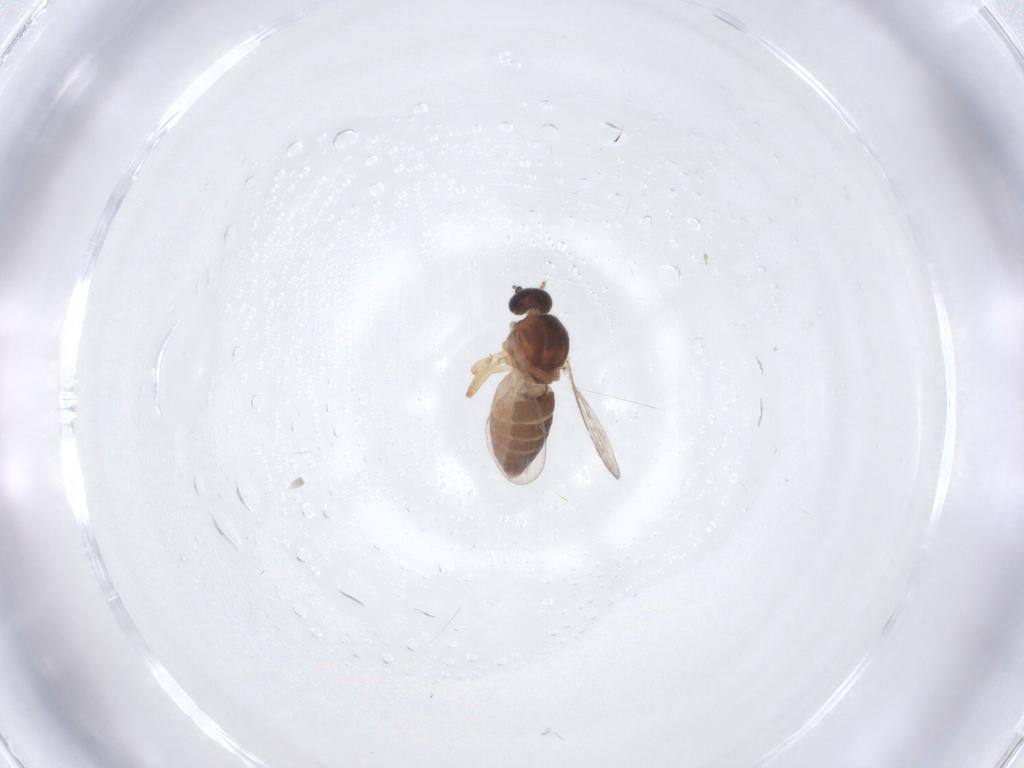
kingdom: Animalia
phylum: Arthropoda
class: Insecta
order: Diptera
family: Ceratopogonidae
